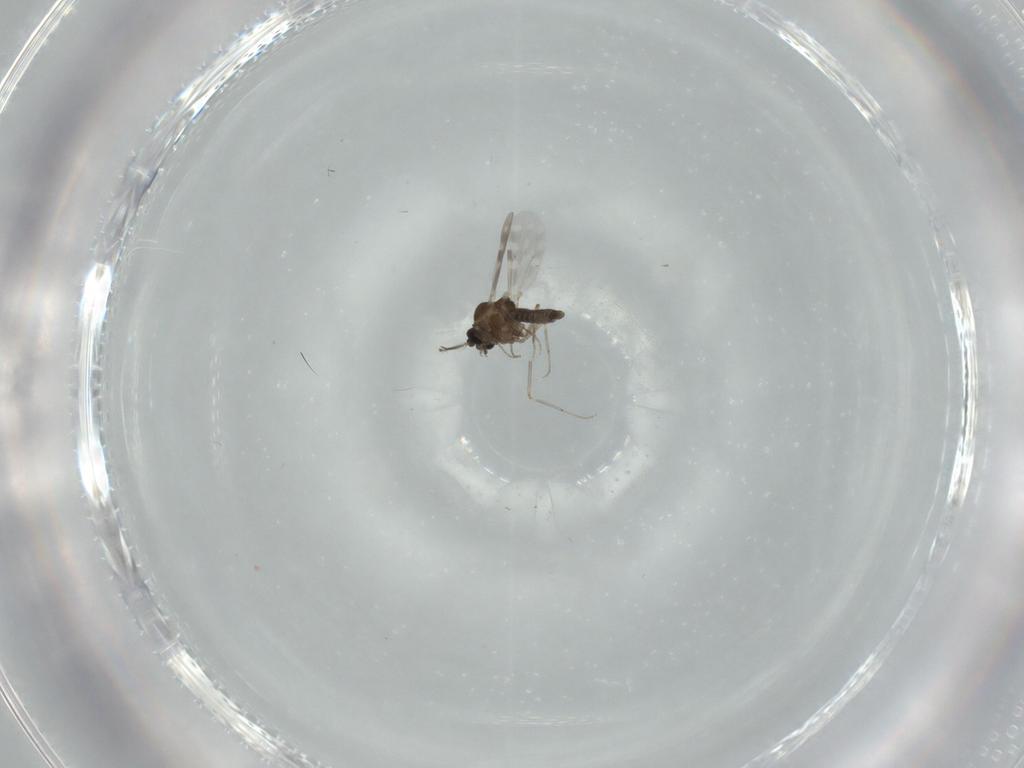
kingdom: Animalia
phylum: Arthropoda
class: Insecta
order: Diptera
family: Ceratopogonidae
